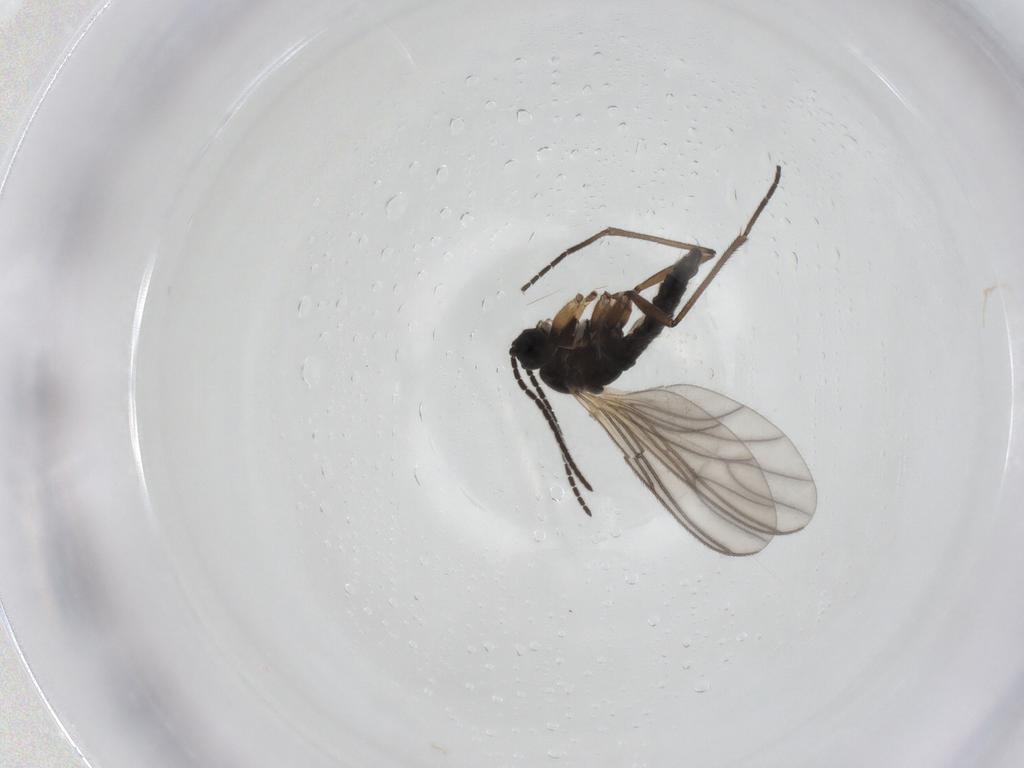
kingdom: Animalia
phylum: Arthropoda
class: Insecta
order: Diptera
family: Sciaridae
